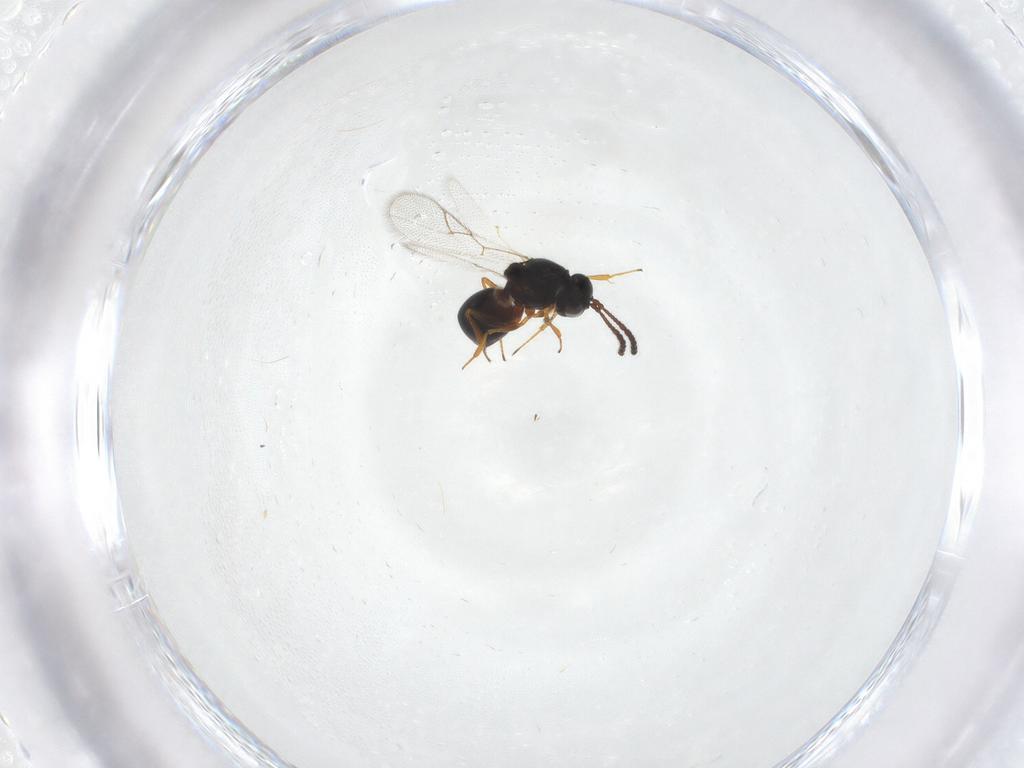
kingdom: Animalia
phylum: Arthropoda
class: Insecta
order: Hymenoptera
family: Figitidae
